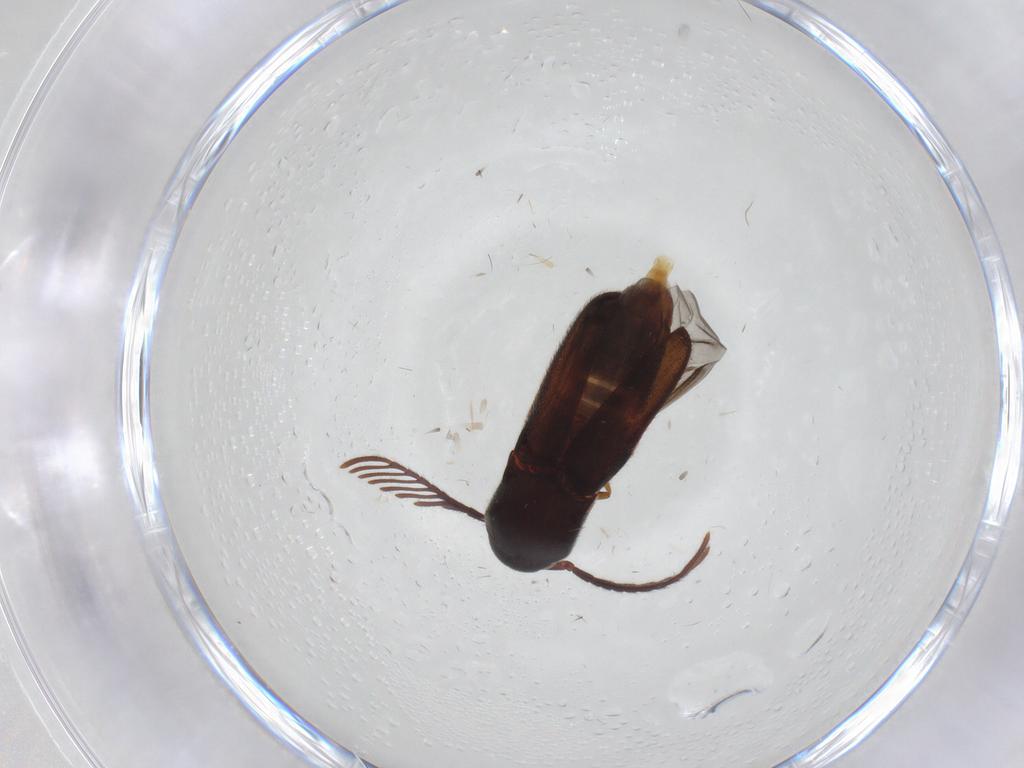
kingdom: Animalia
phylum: Arthropoda
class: Insecta
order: Coleoptera
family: Eucnemidae
